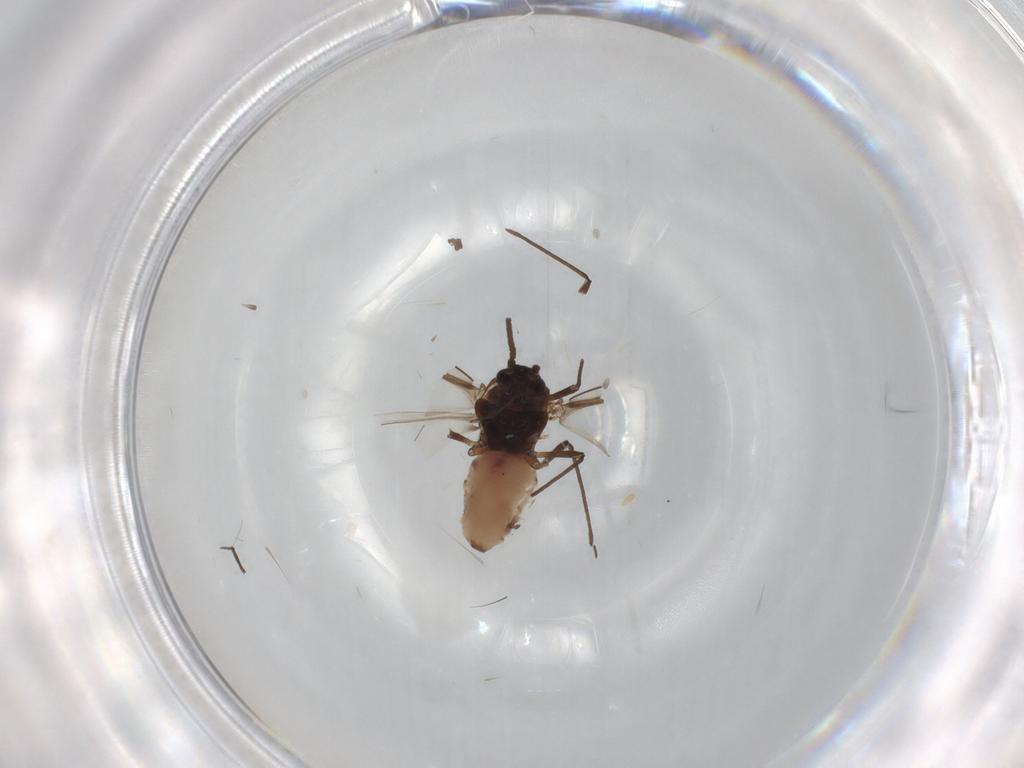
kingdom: Animalia
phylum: Arthropoda
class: Insecta
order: Hemiptera
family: Aphididae
